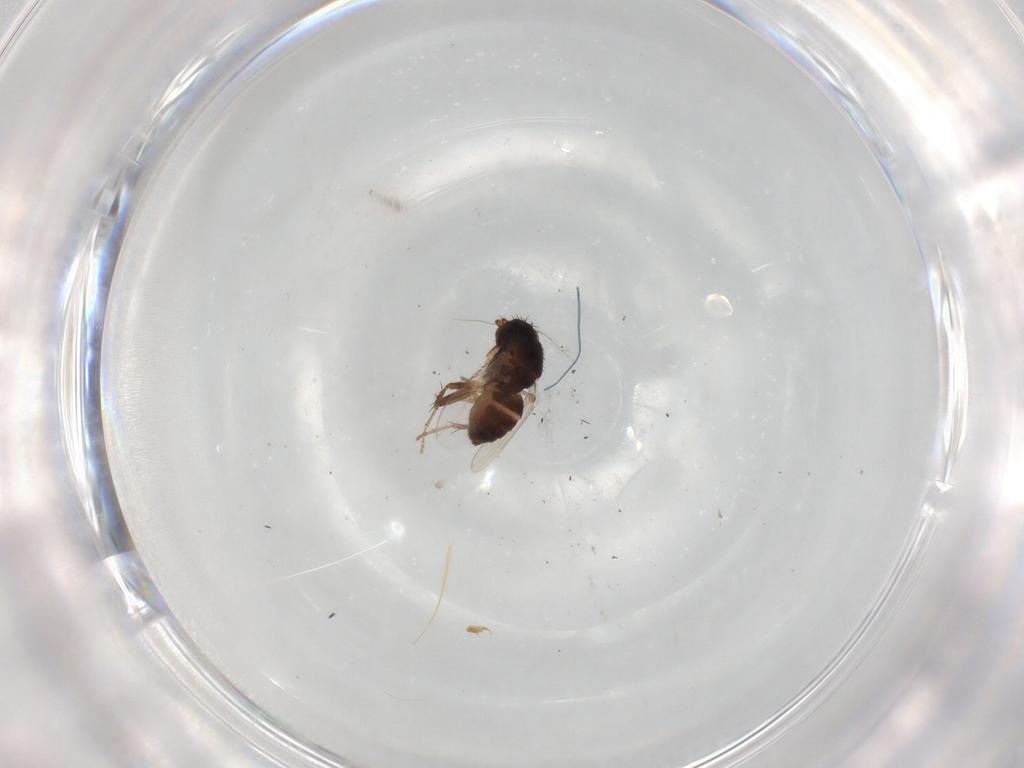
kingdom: Animalia
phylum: Arthropoda
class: Insecta
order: Diptera
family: Sphaeroceridae
